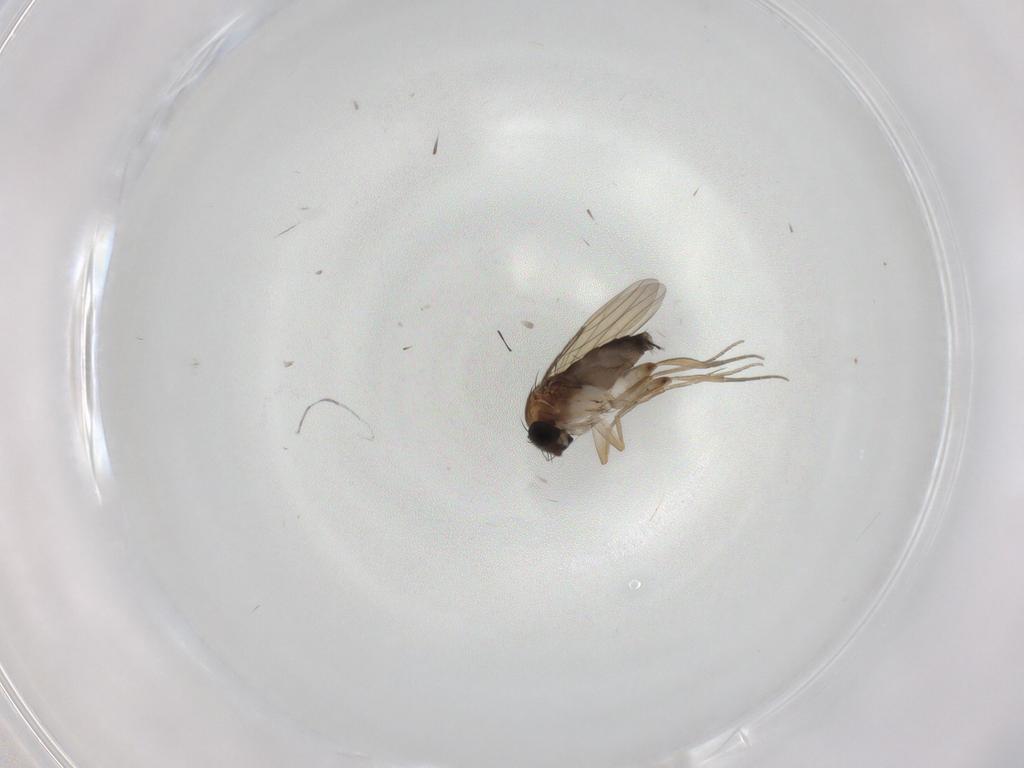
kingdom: Animalia
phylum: Arthropoda
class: Insecta
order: Diptera
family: Phoridae
